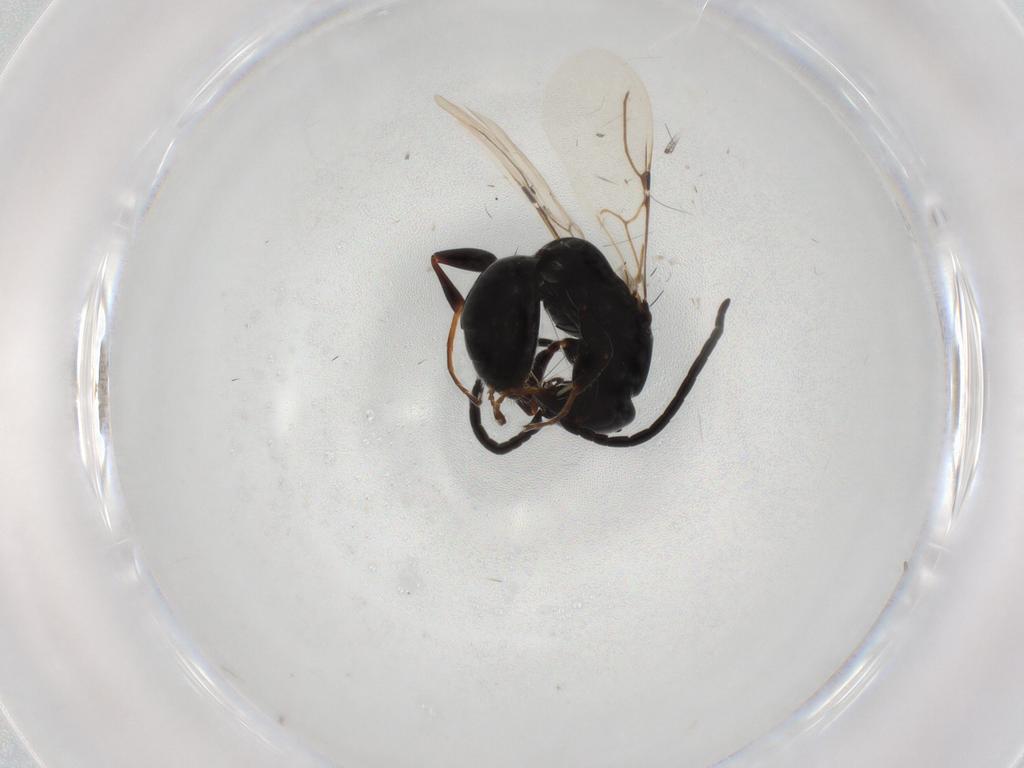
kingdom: Animalia
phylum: Arthropoda
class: Insecta
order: Hymenoptera
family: Bethylidae
